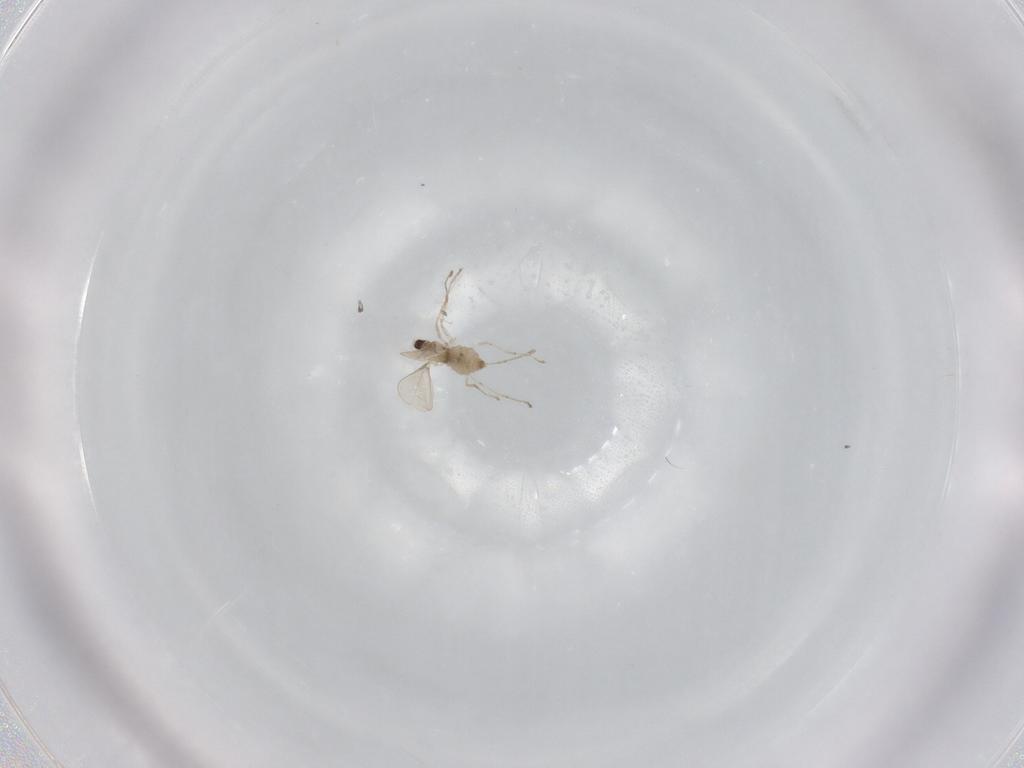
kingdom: Animalia
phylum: Arthropoda
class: Insecta
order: Diptera
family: Cecidomyiidae
